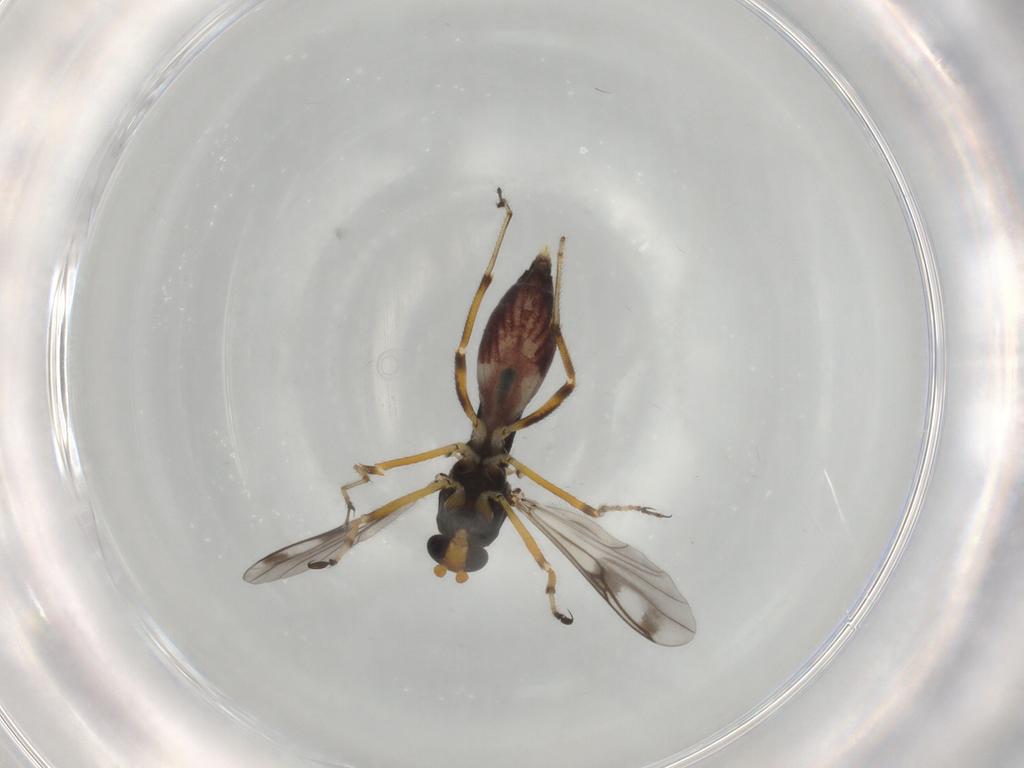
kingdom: Animalia
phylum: Arthropoda
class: Insecta
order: Diptera
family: Ceratopogonidae
